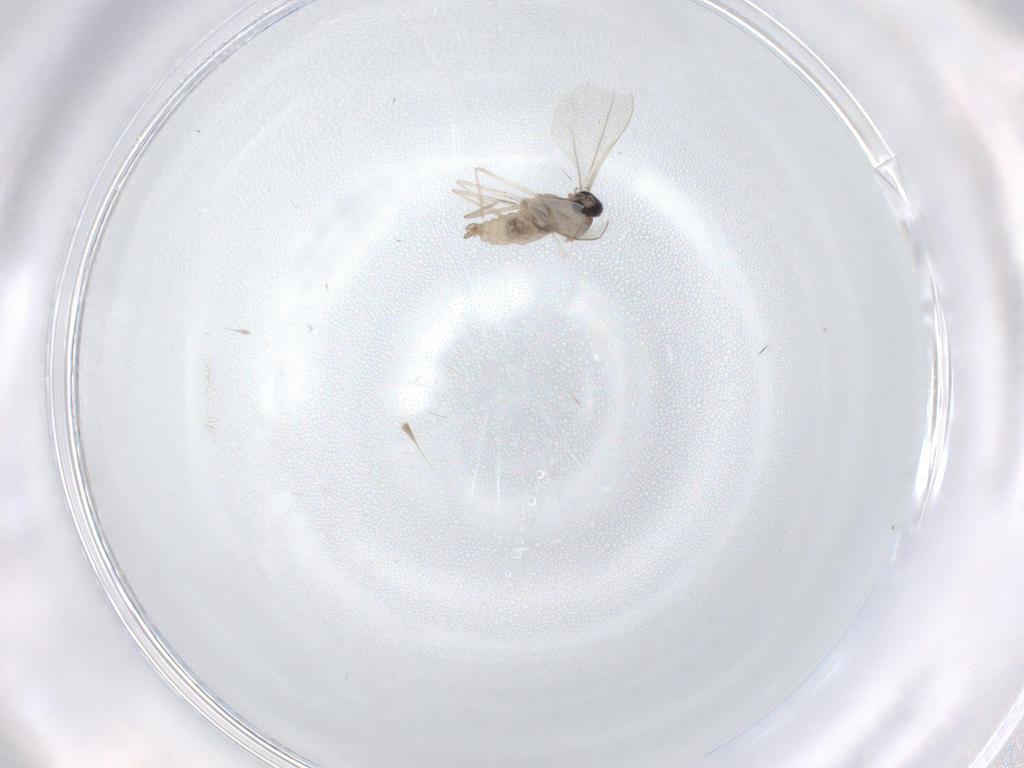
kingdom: Animalia
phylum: Arthropoda
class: Insecta
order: Diptera
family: Cecidomyiidae
